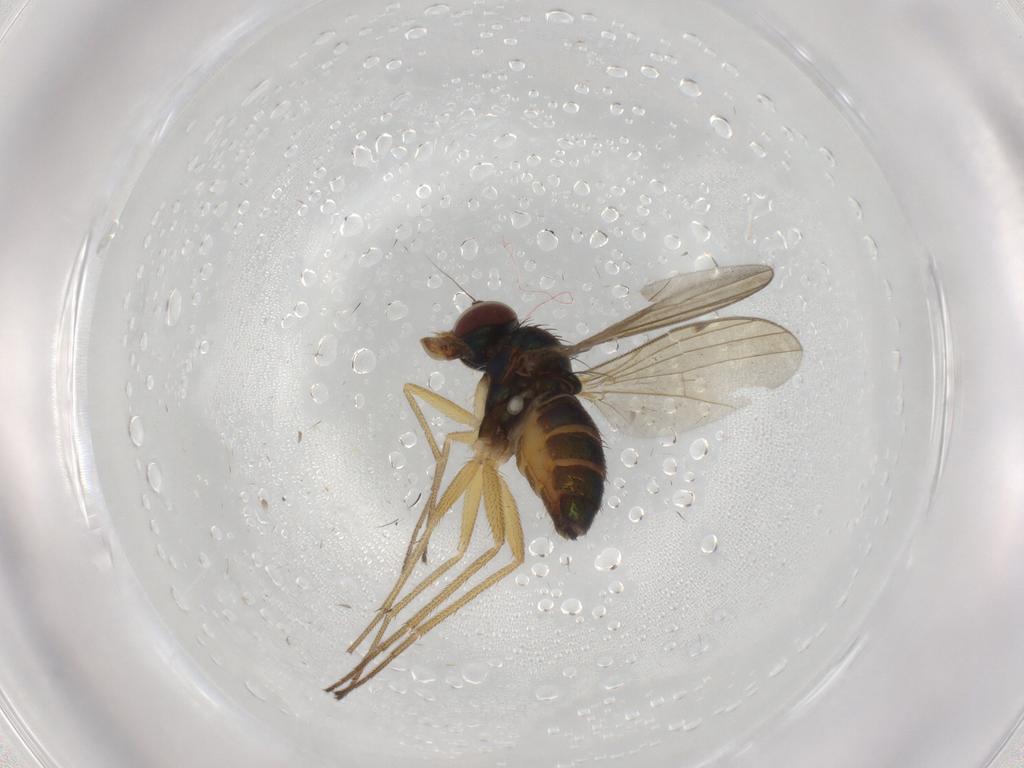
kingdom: Animalia
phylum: Arthropoda
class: Insecta
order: Diptera
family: Dolichopodidae
